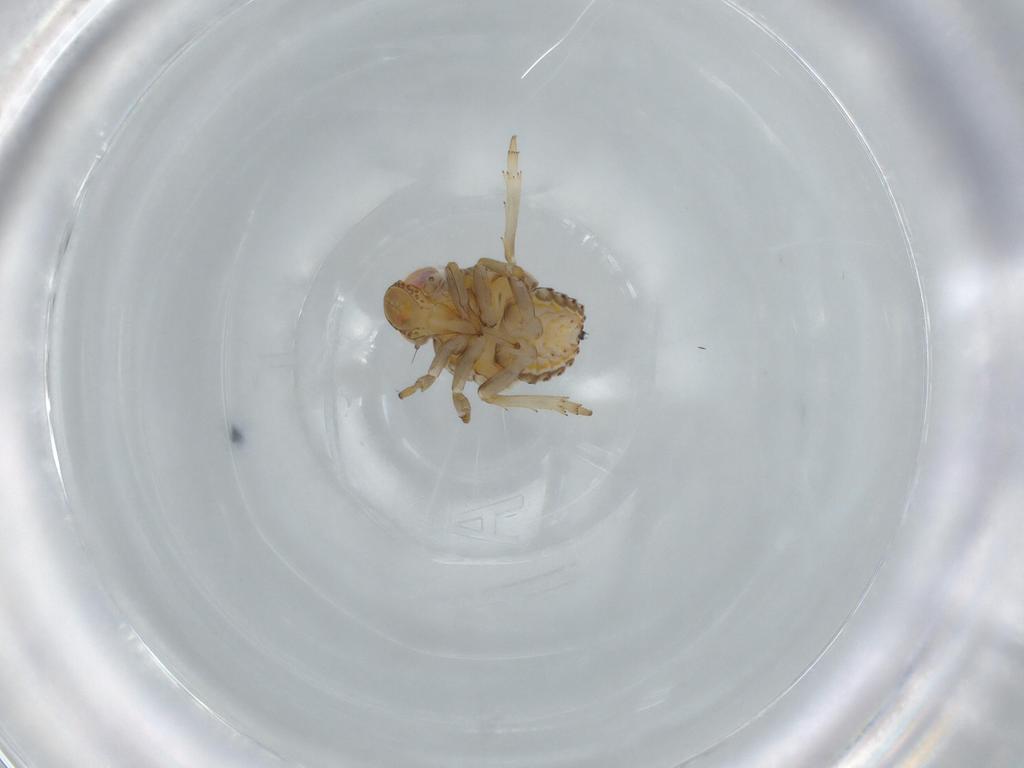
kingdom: Animalia
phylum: Arthropoda
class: Insecta
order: Hemiptera
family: Issidae
